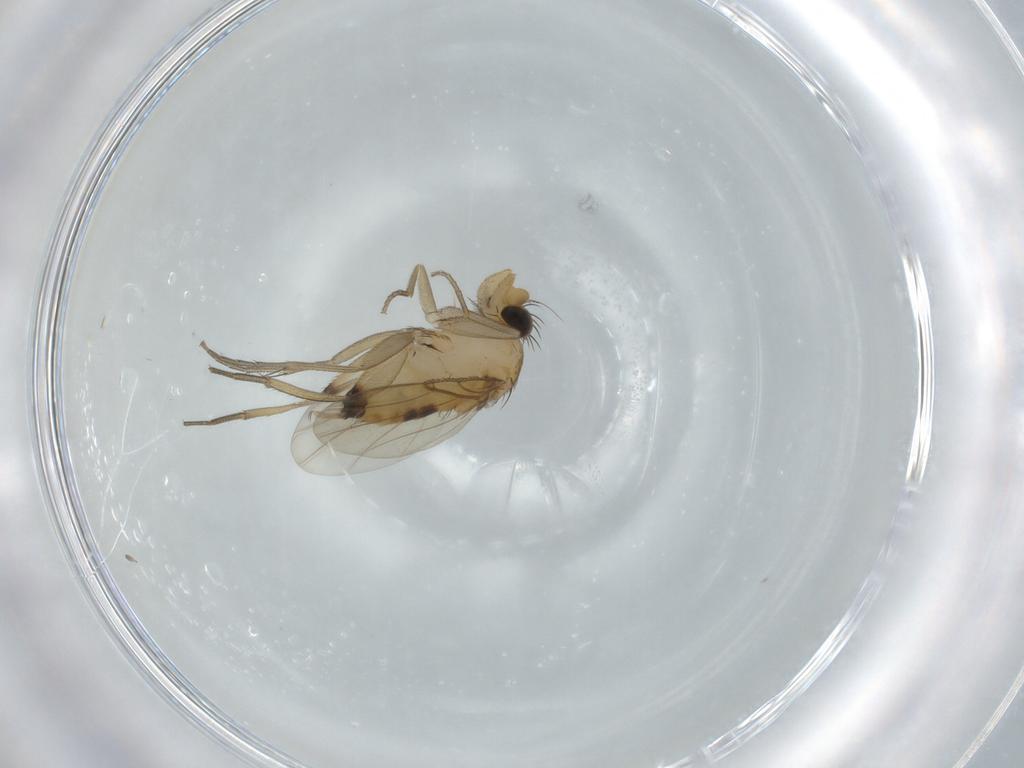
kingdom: Animalia
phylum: Arthropoda
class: Insecta
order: Diptera
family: Phoridae
